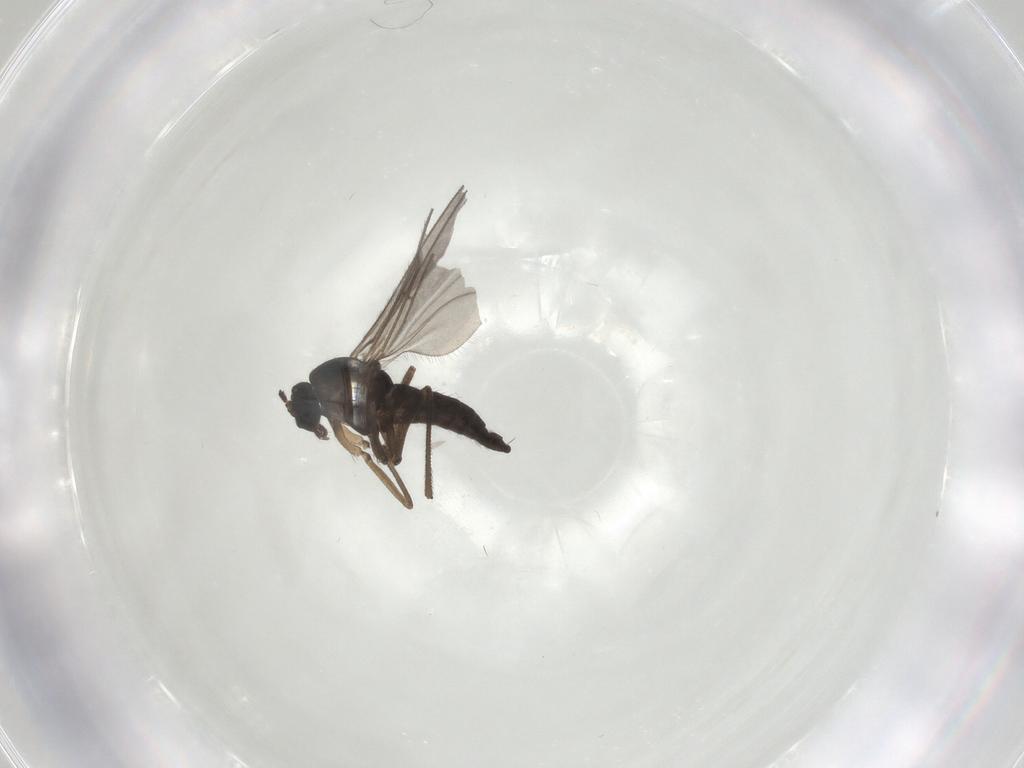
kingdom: Animalia
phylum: Arthropoda
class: Insecta
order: Diptera
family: Sciaridae
